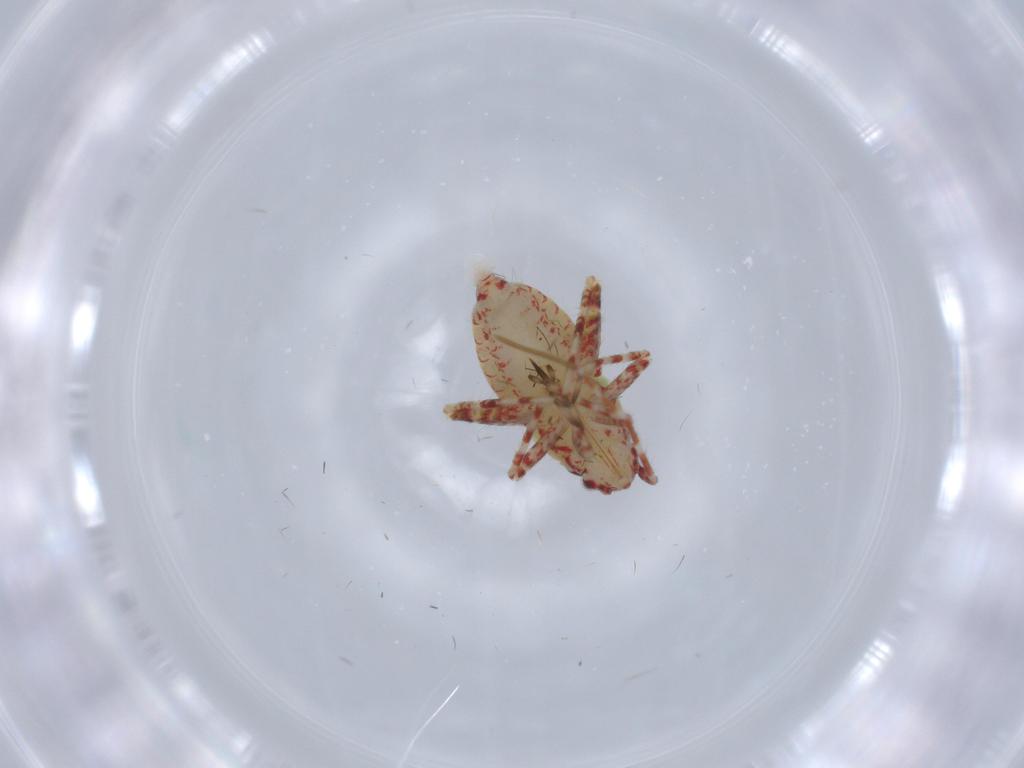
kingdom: Animalia
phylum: Arthropoda
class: Insecta
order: Hemiptera
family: Miridae
